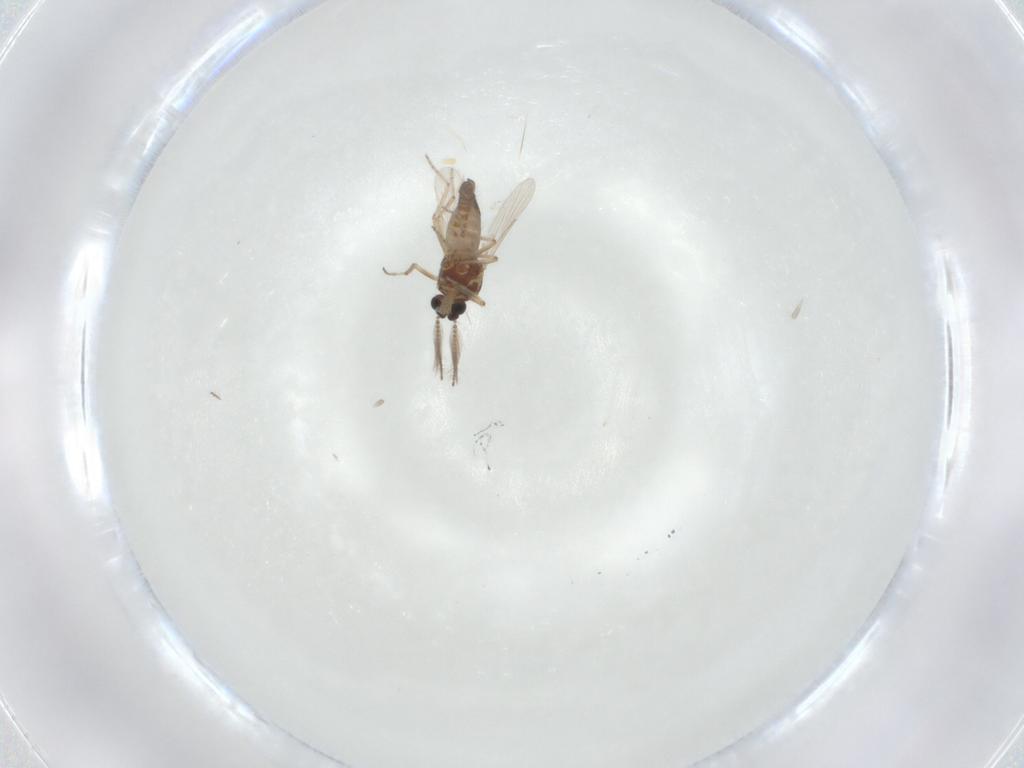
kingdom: Animalia
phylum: Arthropoda
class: Insecta
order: Diptera
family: Ceratopogonidae
